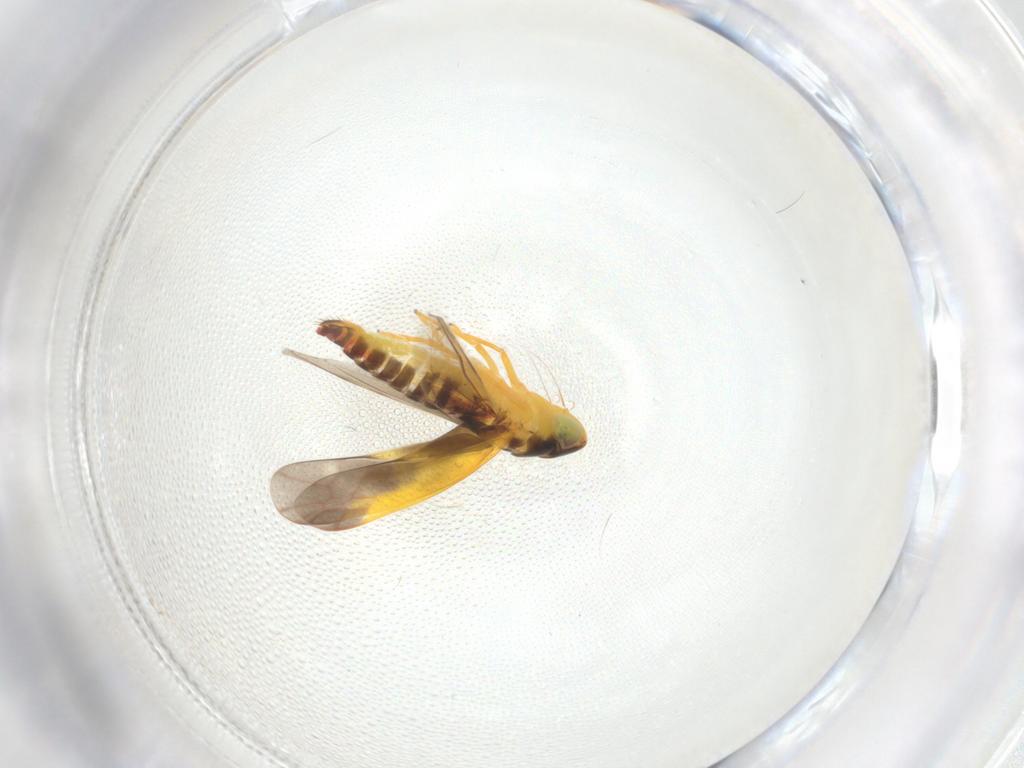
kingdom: Animalia
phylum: Arthropoda
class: Insecta
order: Hemiptera
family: Cicadellidae
